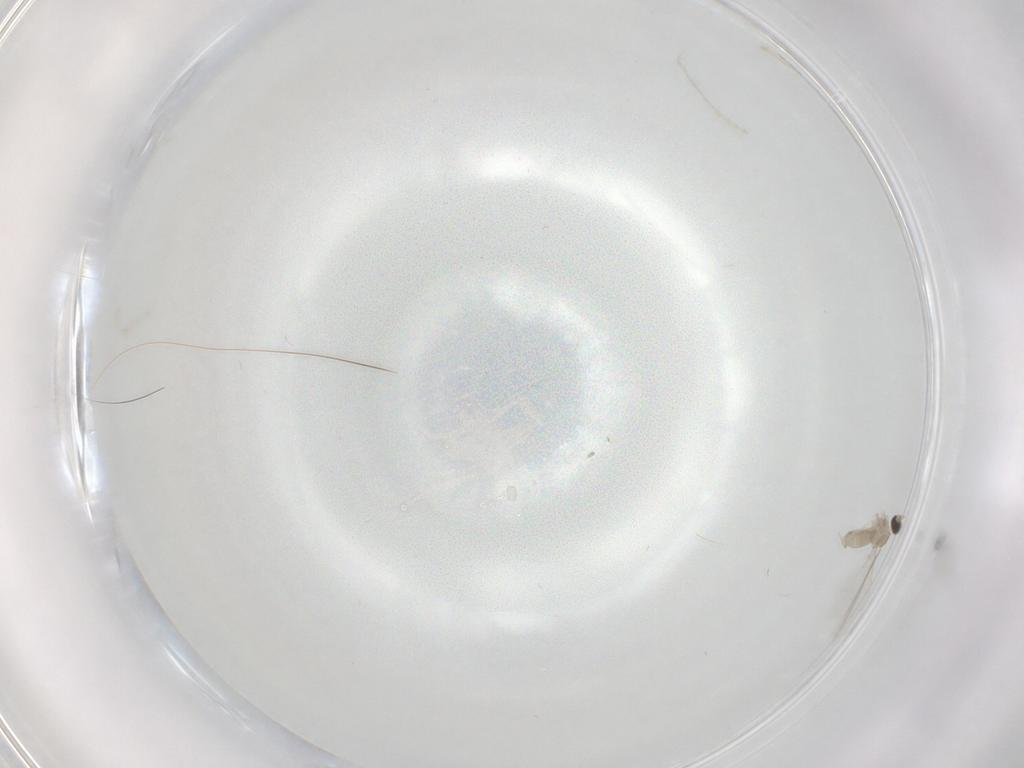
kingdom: Animalia
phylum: Arthropoda
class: Insecta
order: Diptera
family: Cecidomyiidae
